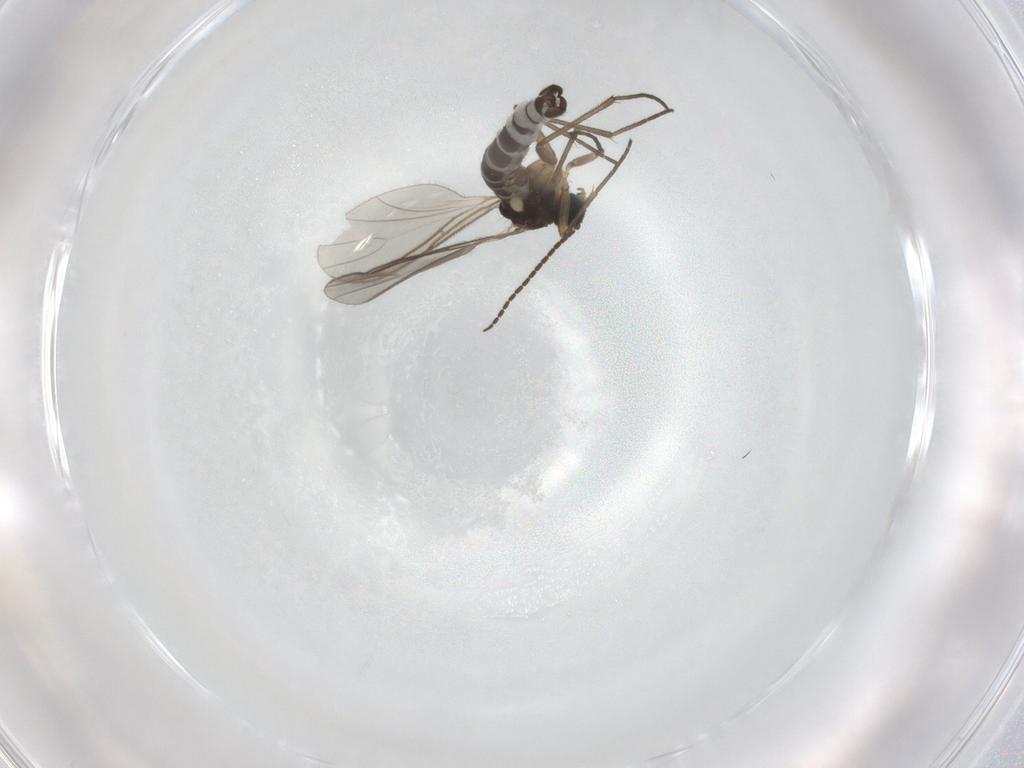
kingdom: Animalia
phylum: Arthropoda
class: Insecta
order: Diptera
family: Sciaridae
